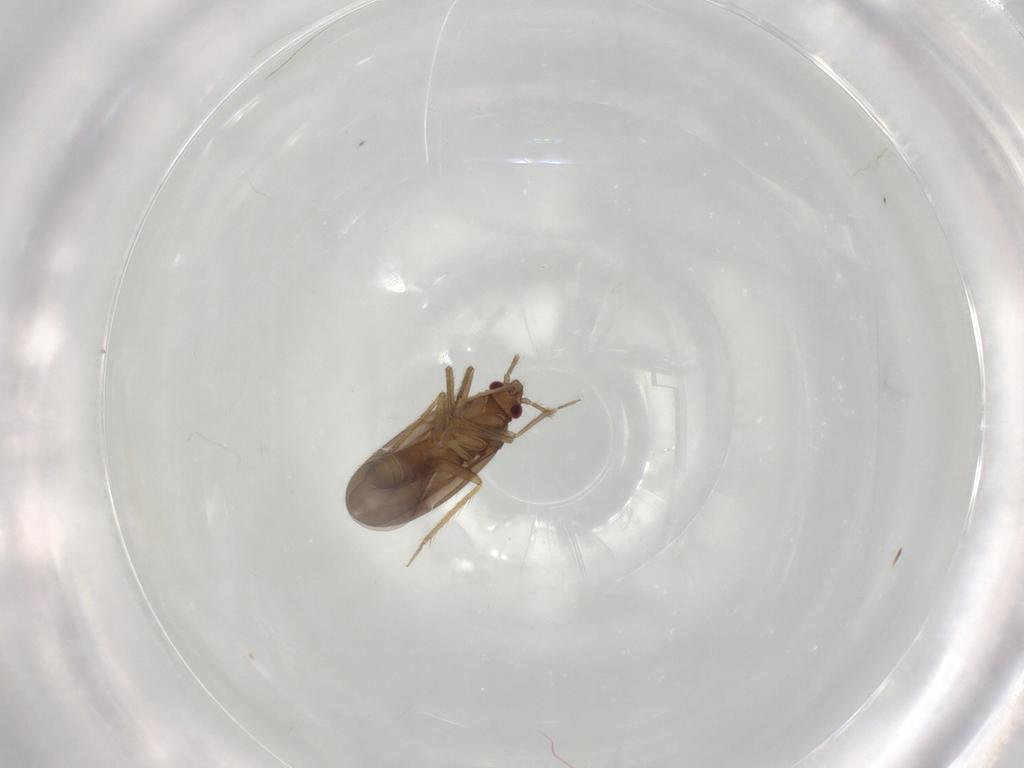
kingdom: Animalia
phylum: Arthropoda
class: Insecta
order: Hemiptera
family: Ceratocombidae
